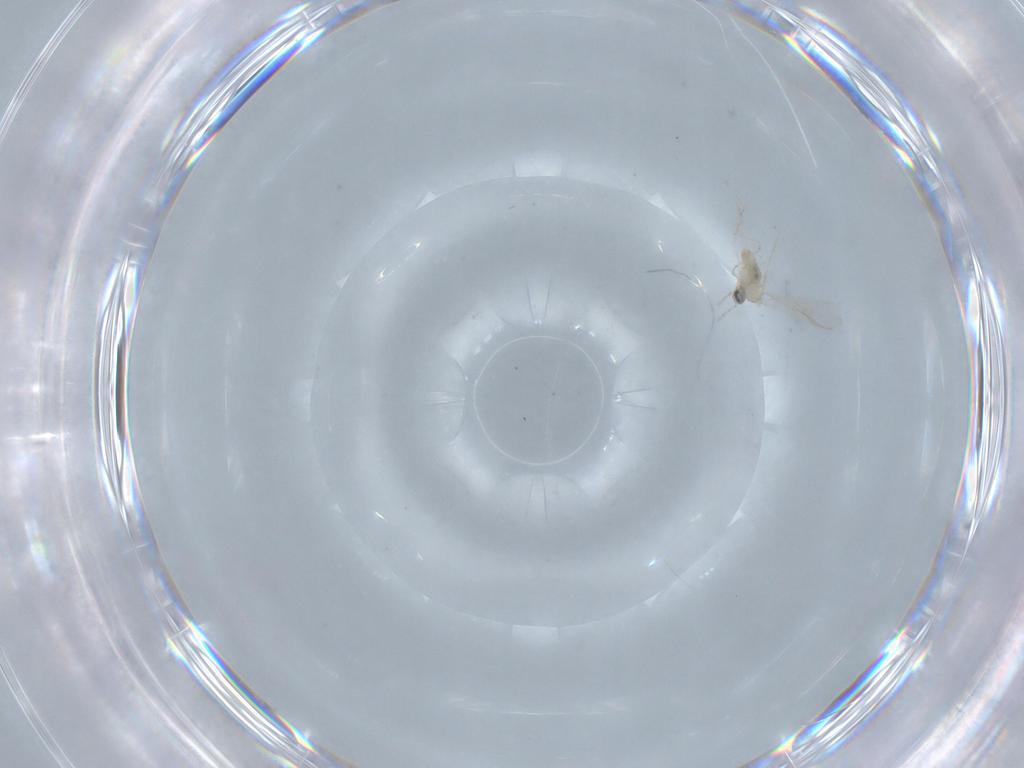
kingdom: Animalia
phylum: Arthropoda
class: Insecta
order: Diptera
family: Cecidomyiidae
